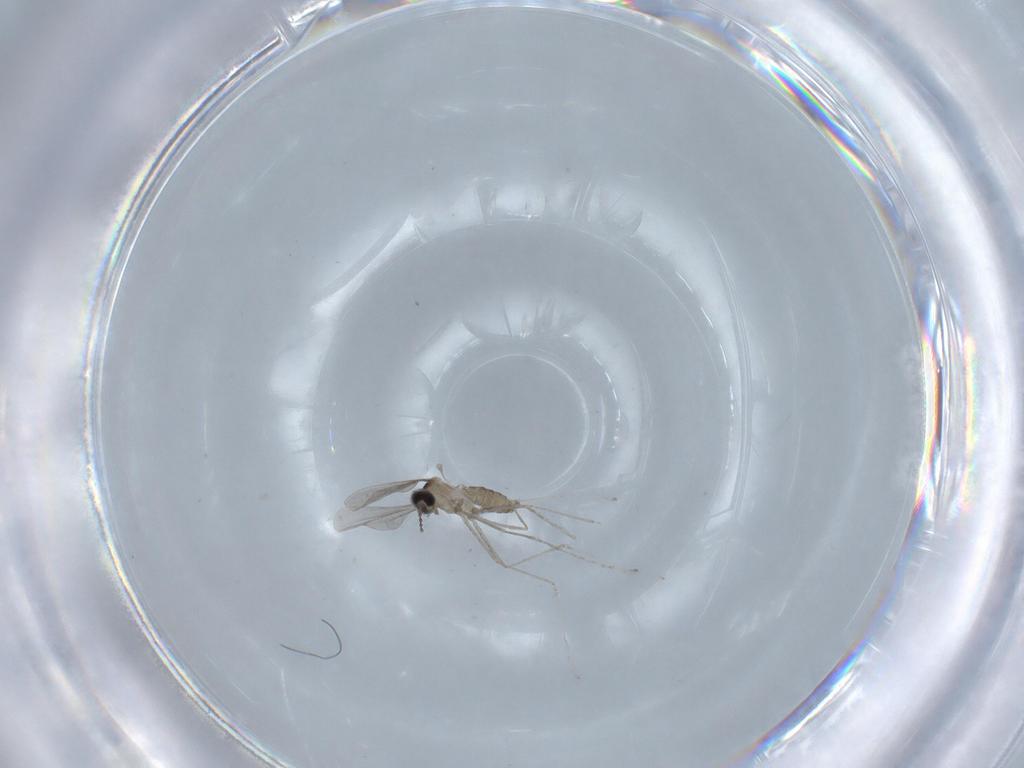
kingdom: Animalia
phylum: Arthropoda
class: Insecta
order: Diptera
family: Cecidomyiidae
